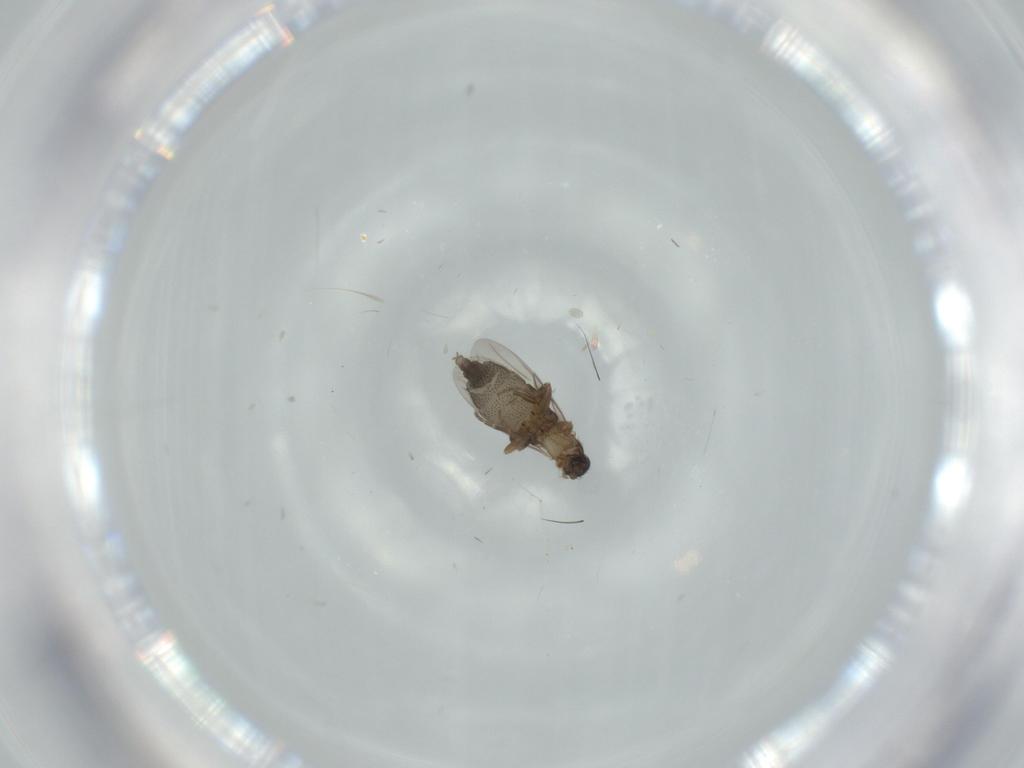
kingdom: Animalia
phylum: Arthropoda
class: Insecta
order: Diptera
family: Phoridae
